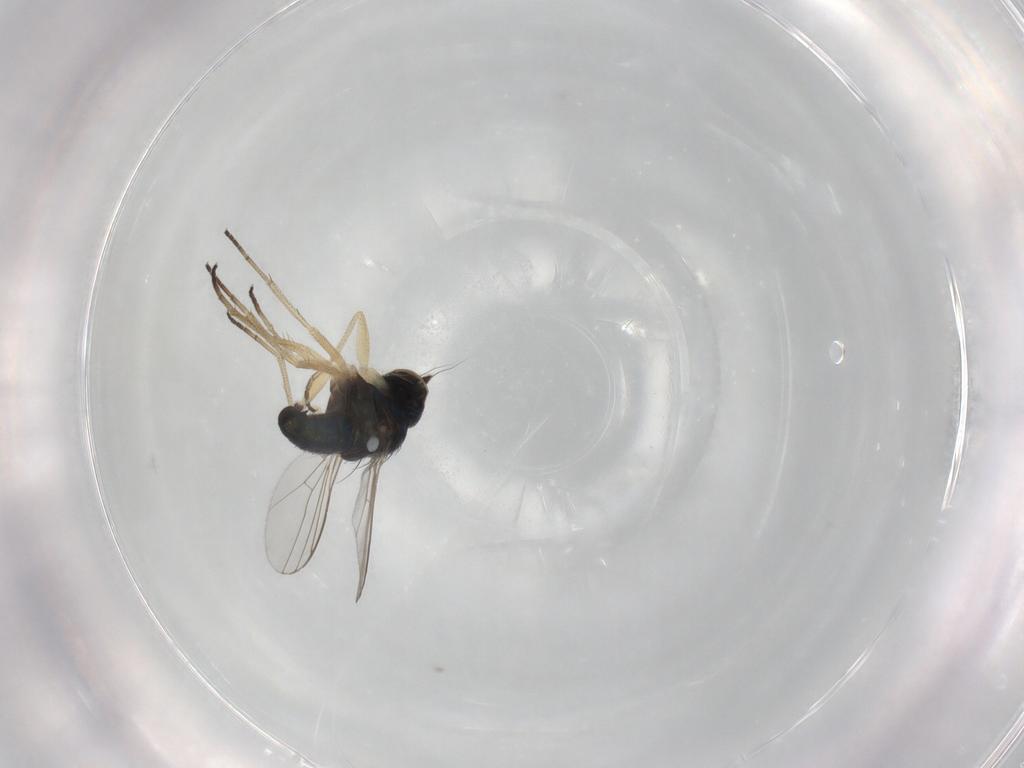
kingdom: Animalia
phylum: Arthropoda
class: Insecta
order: Diptera
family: Dolichopodidae
